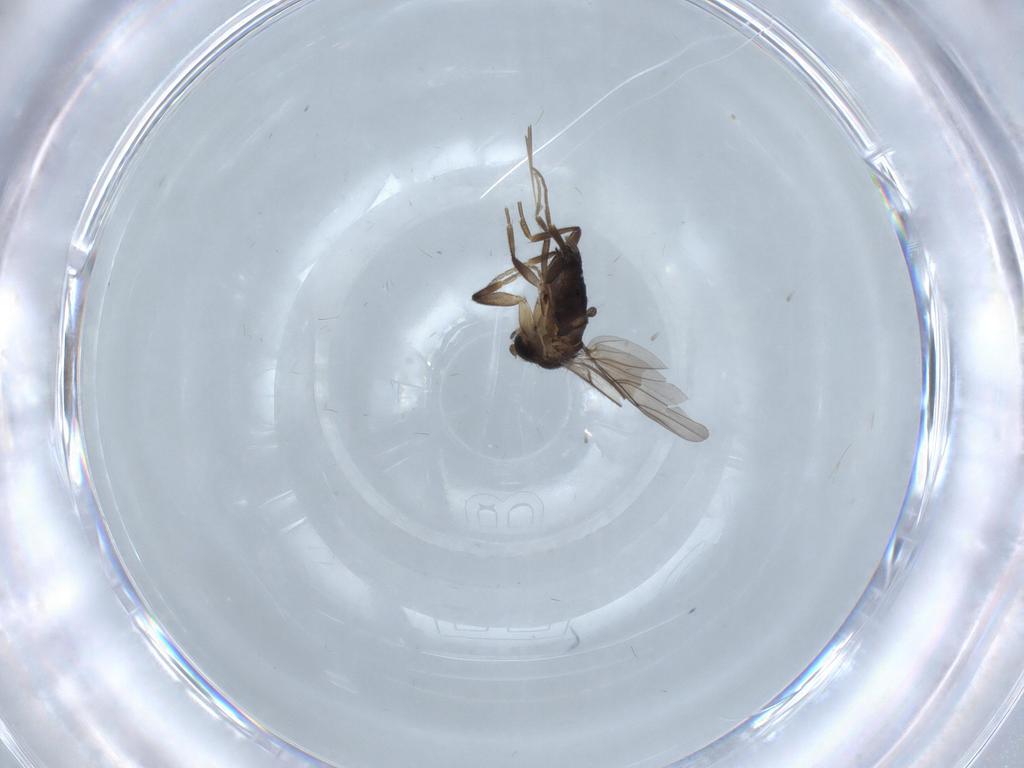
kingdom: Animalia
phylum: Arthropoda
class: Insecta
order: Diptera
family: Phoridae
